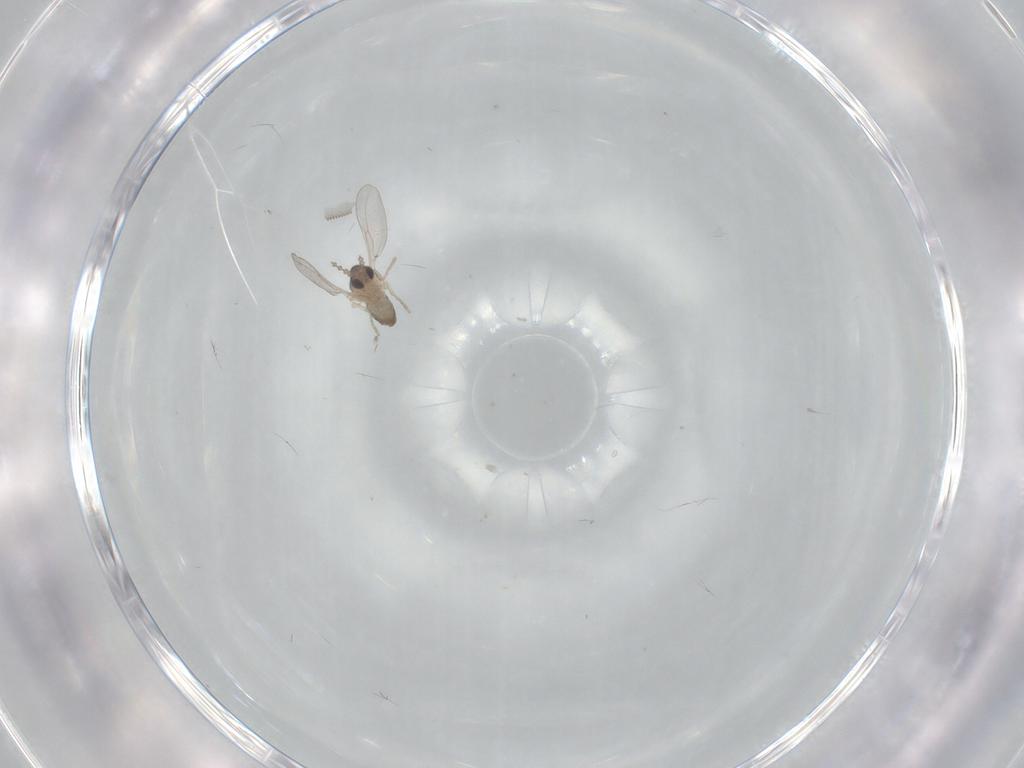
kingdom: Animalia
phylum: Arthropoda
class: Insecta
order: Diptera
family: Cecidomyiidae
